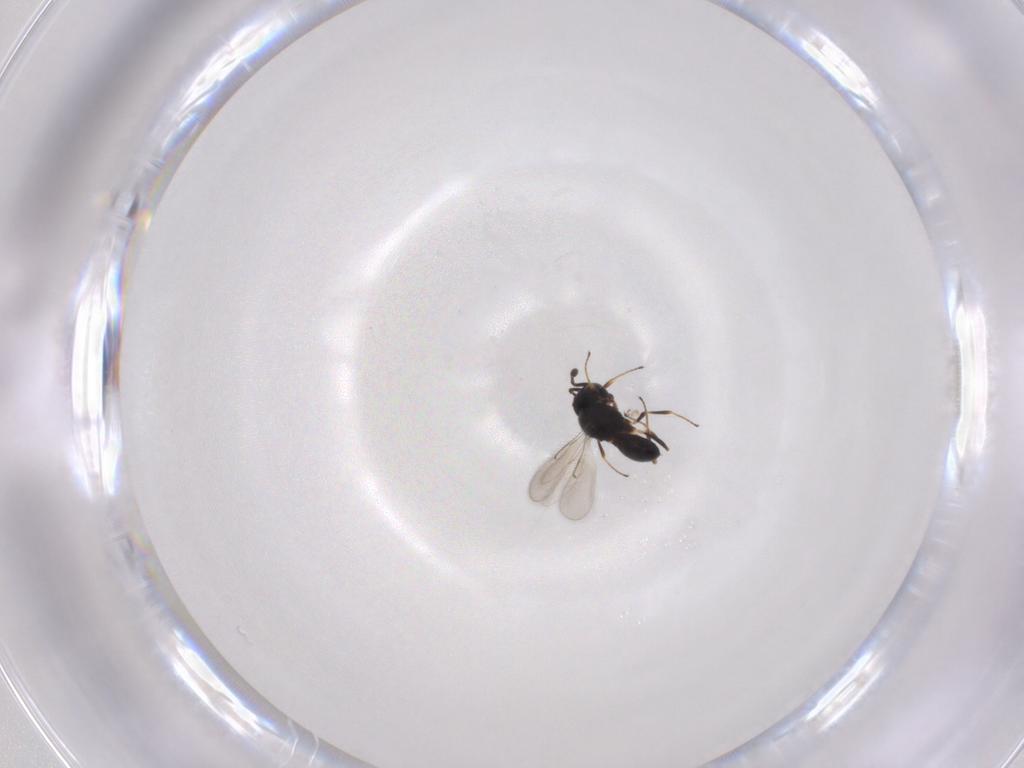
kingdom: Animalia
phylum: Arthropoda
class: Insecta
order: Hymenoptera
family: Scelionidae
